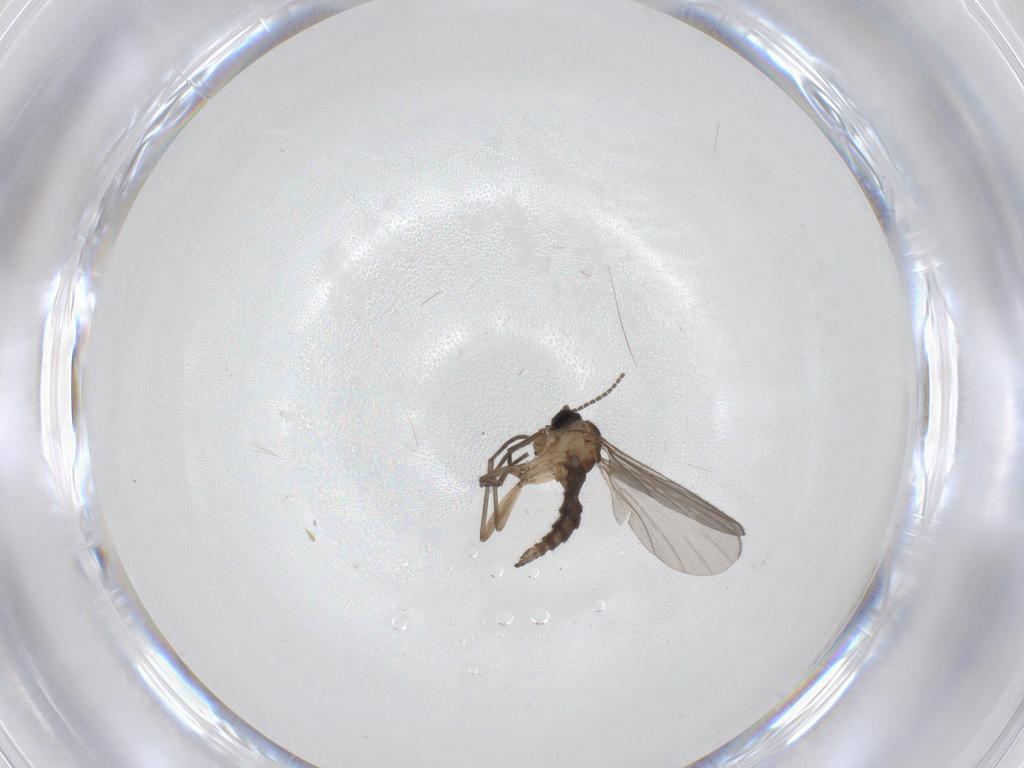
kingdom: Animalia
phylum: Arthropoda
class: Insecta
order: Diptera
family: Sciaridae
